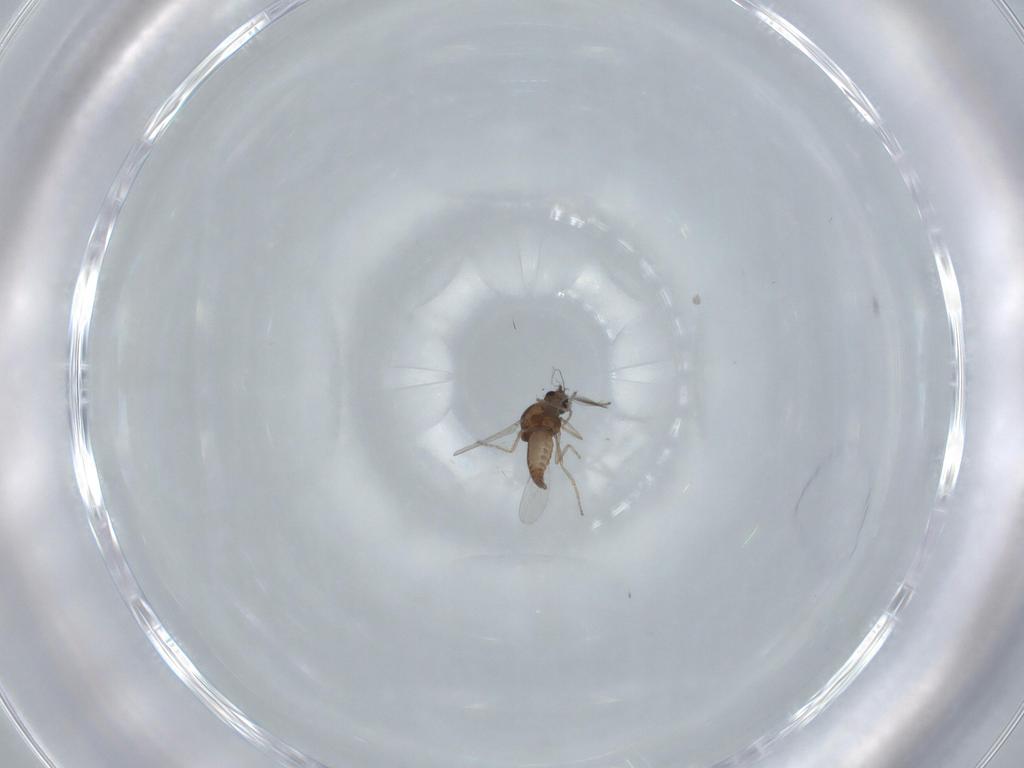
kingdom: Animalia
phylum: Arthropoda
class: Insecta
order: Diptera
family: Ceratopogonidae
